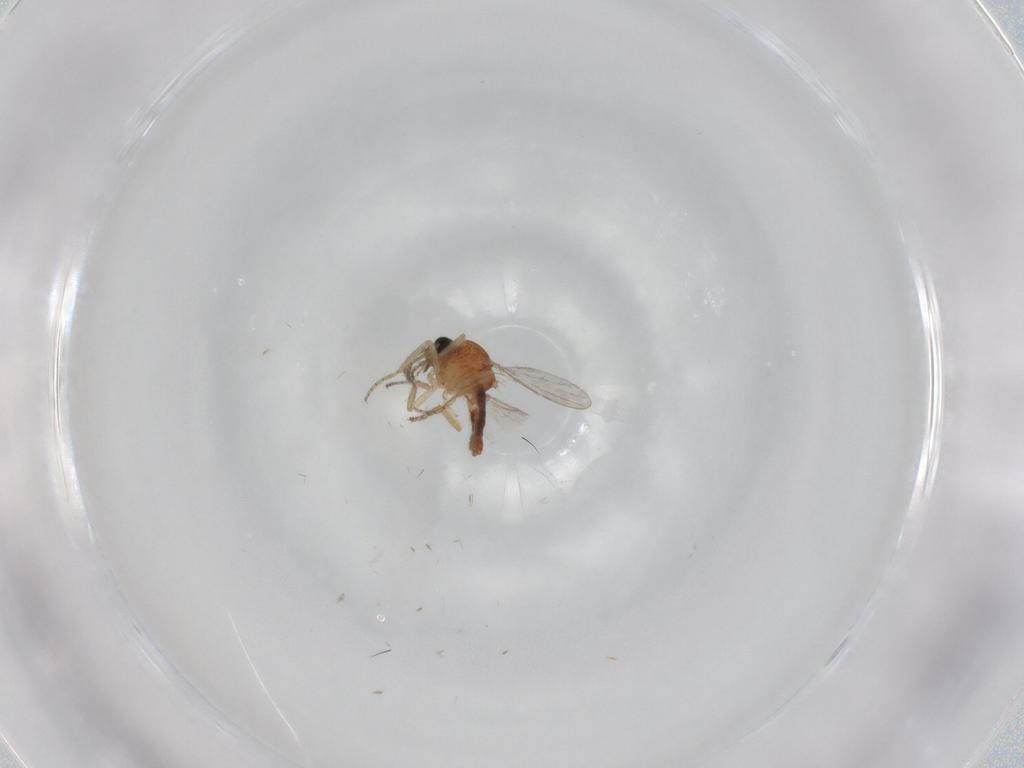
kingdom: Animalia
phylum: Arthropoda
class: Insecta
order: Diptera
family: Ceratopogonidae
